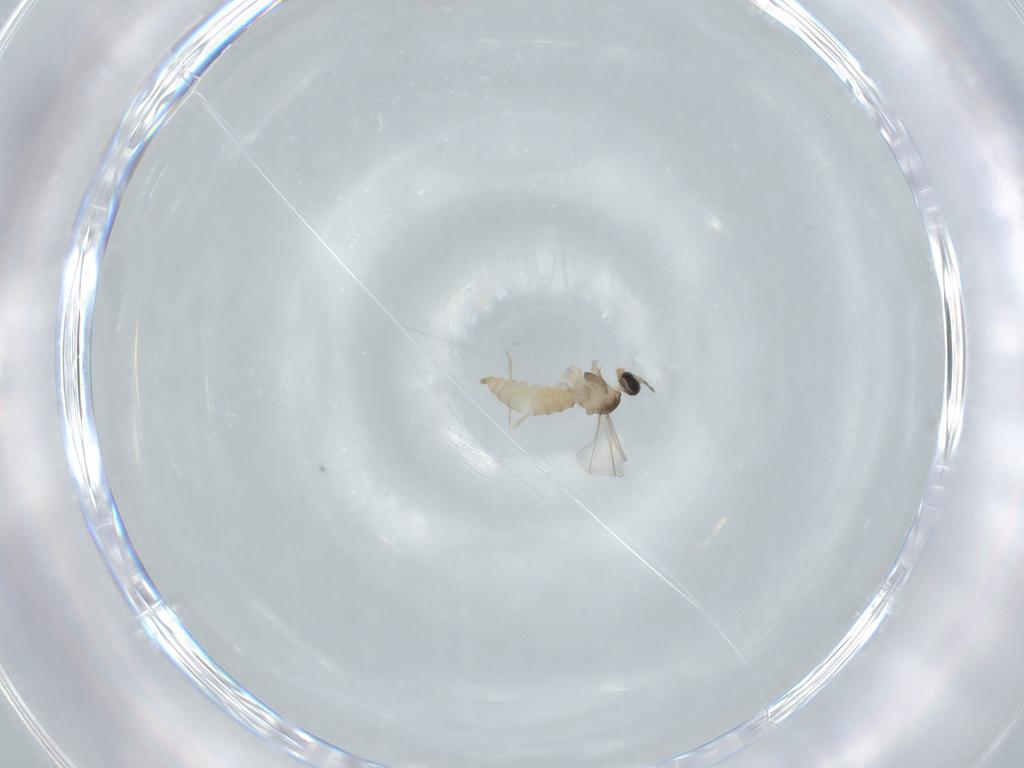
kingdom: Animalia
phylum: Arthropoda
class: Insecta
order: Diptera
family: Cecidomyiidae
